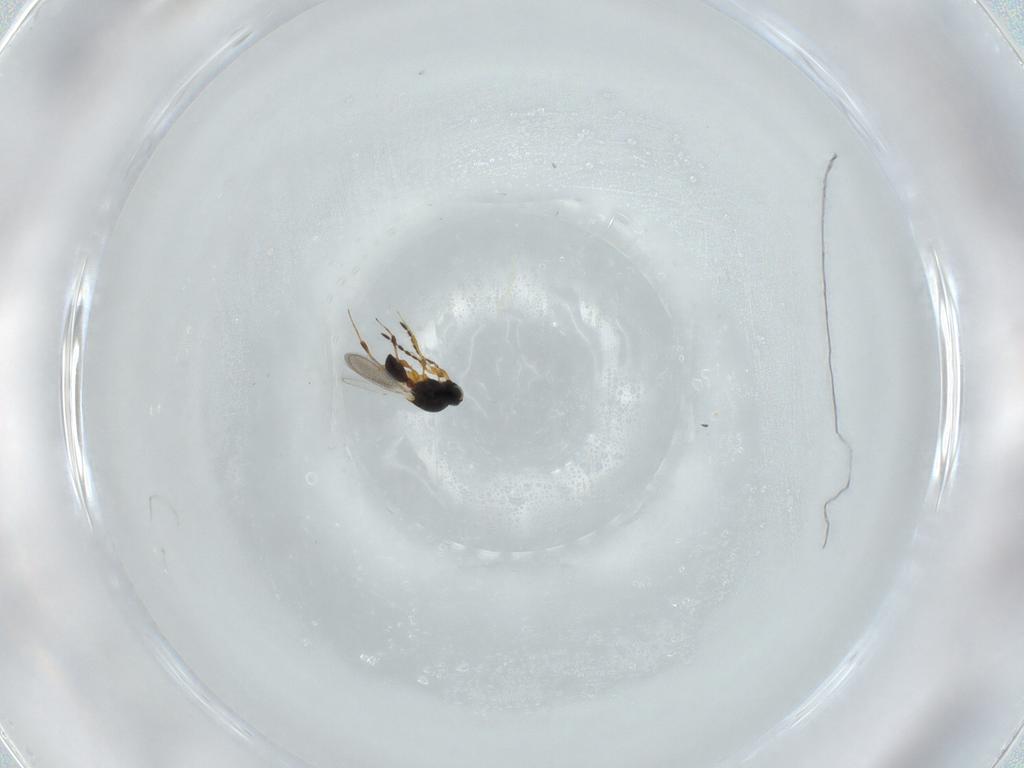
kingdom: Animalia
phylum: Arthropoda
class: Insecta
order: Hymenoptera
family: Platygastridae
